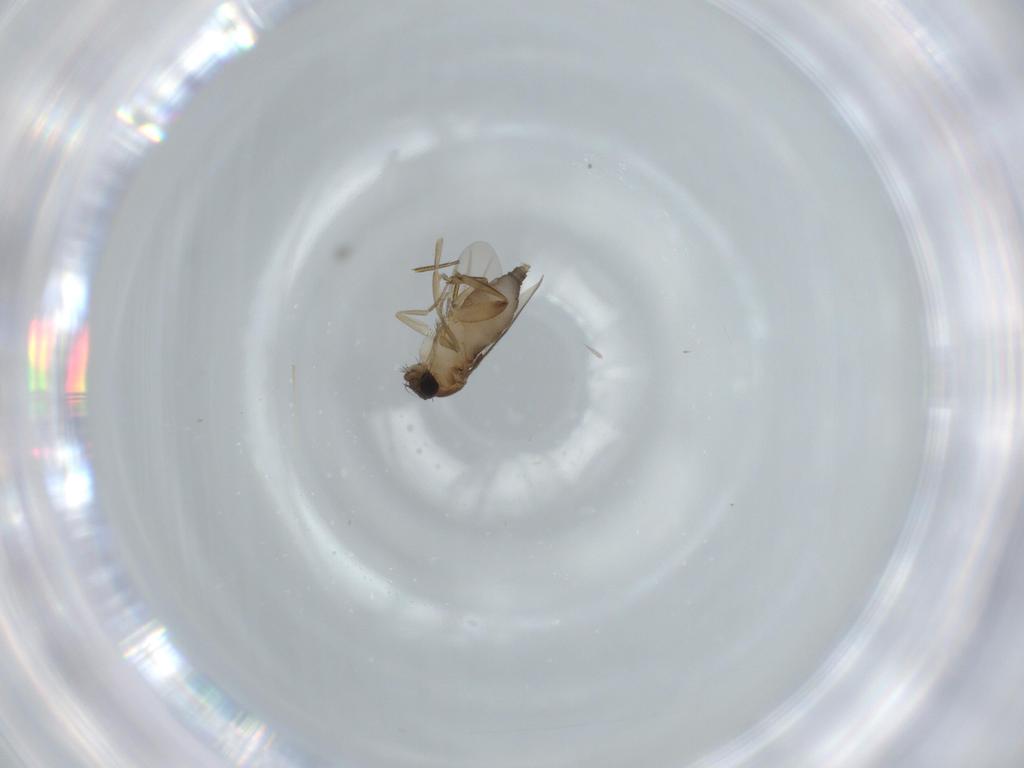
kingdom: Animalia
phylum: Arthropoda
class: Insecta
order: Diptera
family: Phoridae
